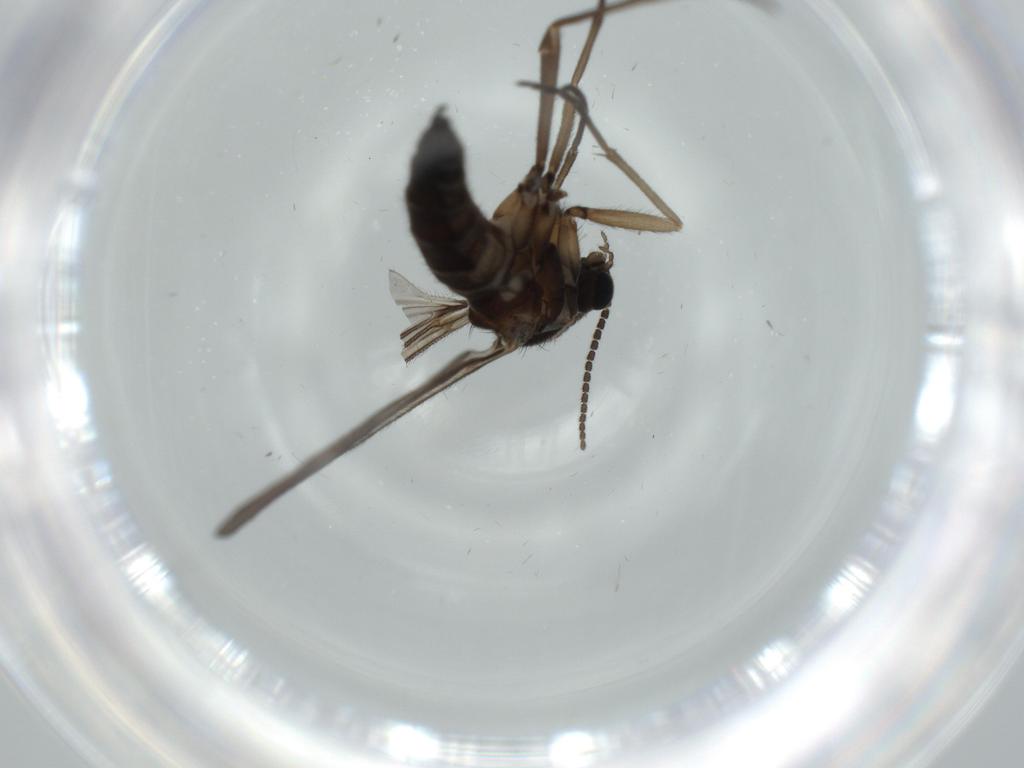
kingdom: Animalia
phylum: Arthropoda
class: Insecta
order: Diptera
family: Sciaridae
